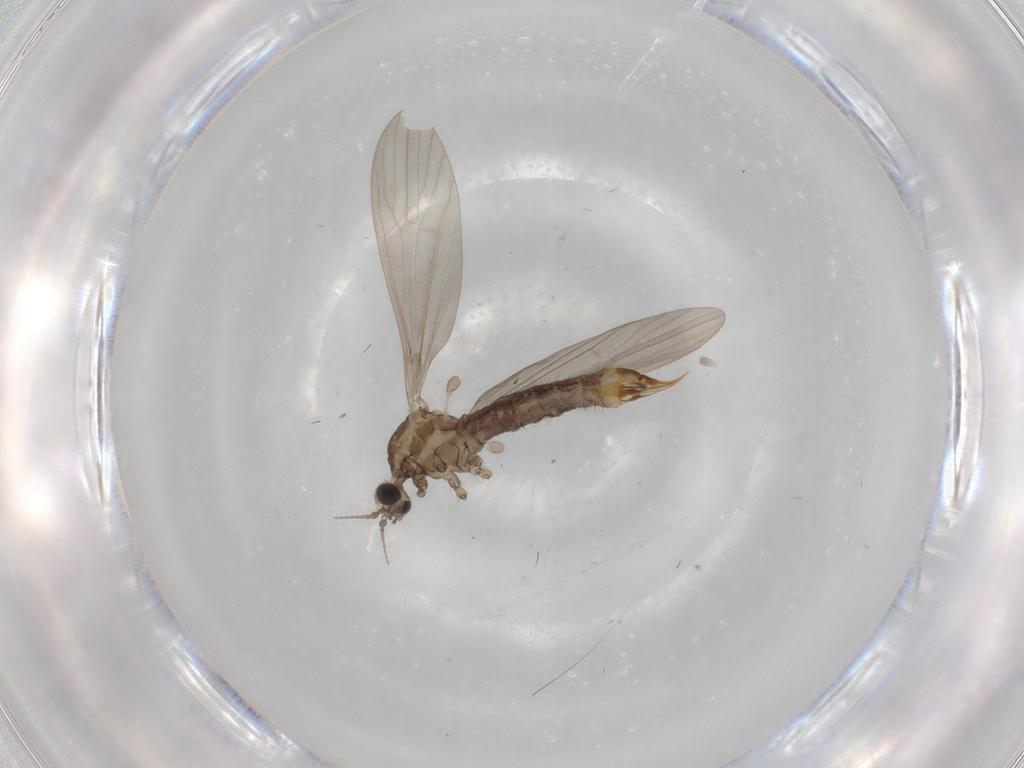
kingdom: Animalia
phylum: Arthropoda
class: Insecta
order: Diptera
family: Limoniidae
